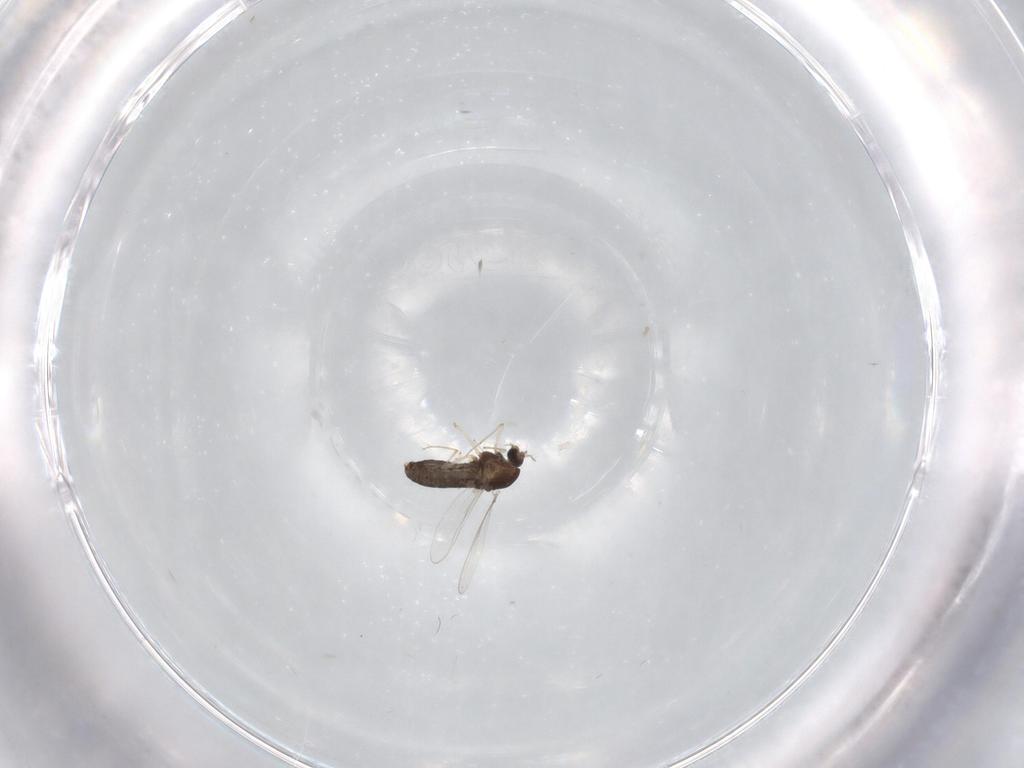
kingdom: Animalia
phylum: Arthropoda
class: Insecta
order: Diptera
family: Chironomidae
